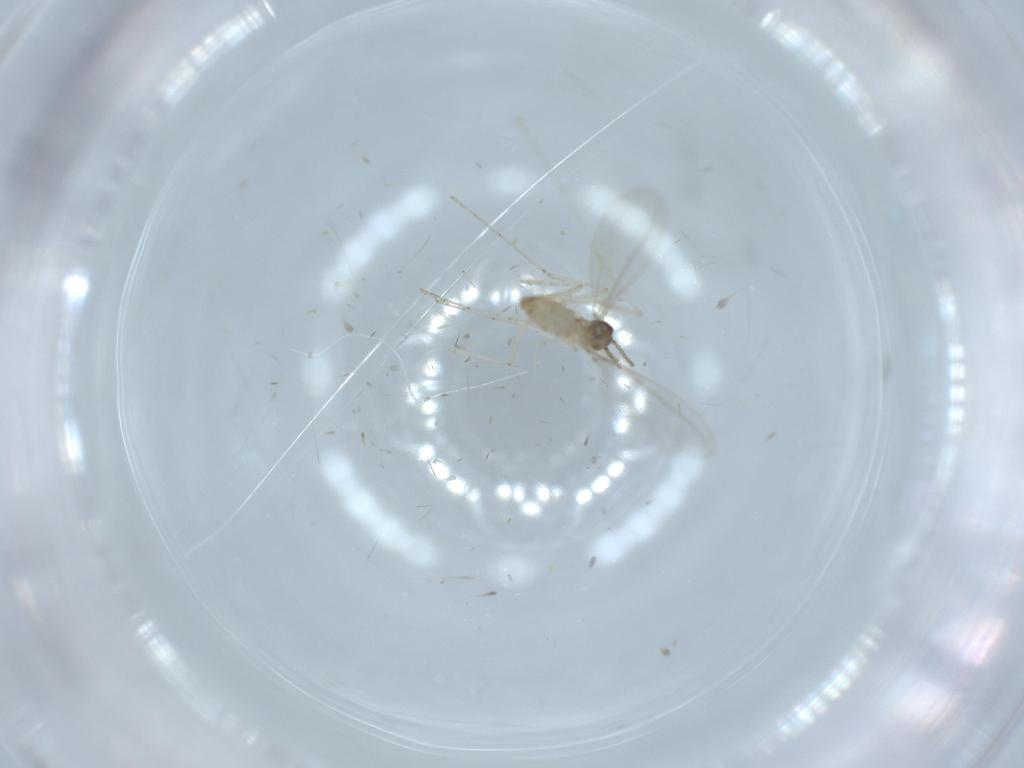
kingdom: Animalia
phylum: Arthropoda
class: Insecta
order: Diptera
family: Cecidomyiidae
